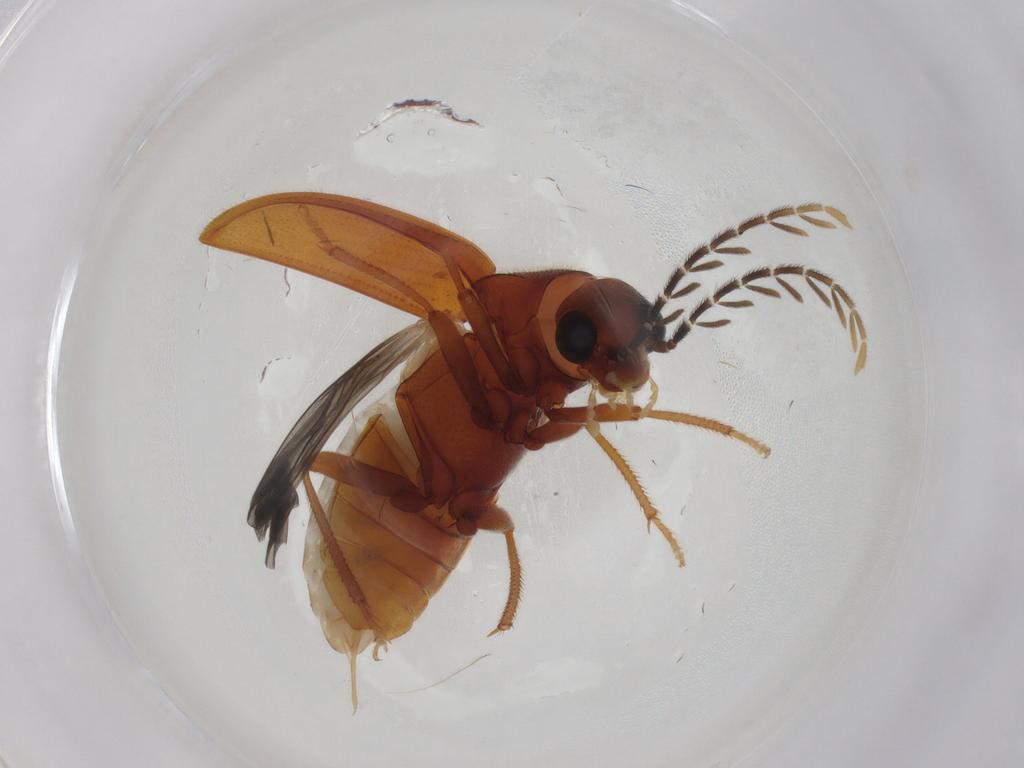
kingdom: Animalia
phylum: Arthropoda
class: Insecta
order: Coleoptera
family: Ptilodactylidae
